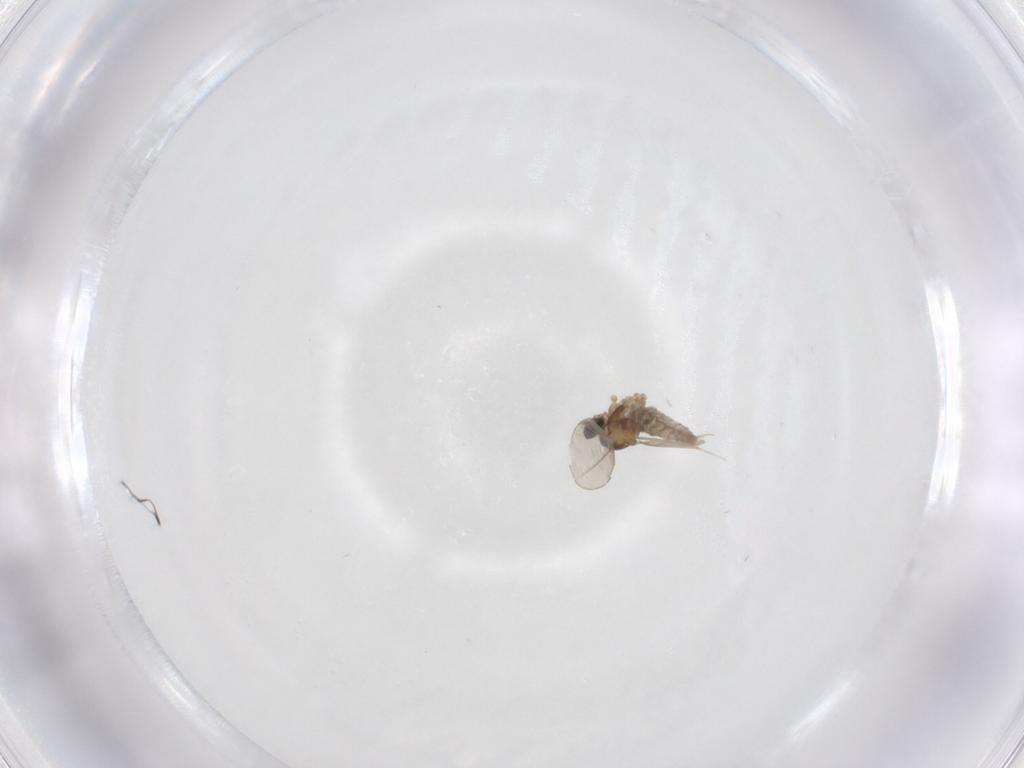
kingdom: Animalia
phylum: Arthropoda
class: Insecta
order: Diptera
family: Cecidomyiidae
